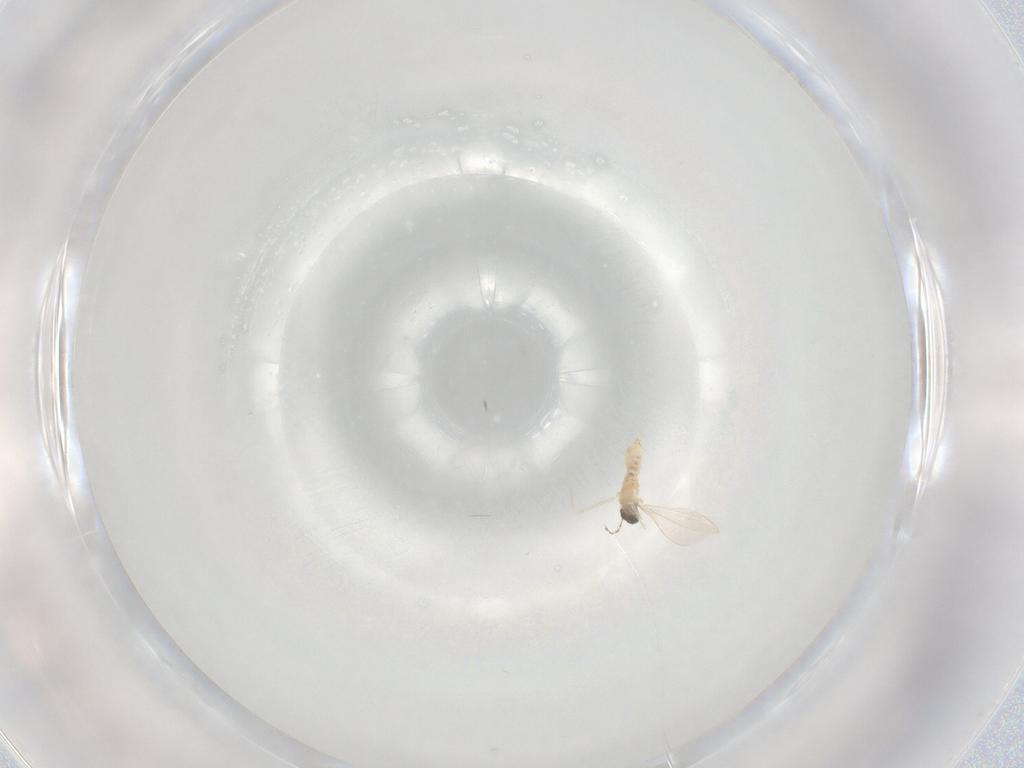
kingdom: Animalia
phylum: Arthropoda
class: Insecta
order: Diptera
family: Cecidomyiidae
